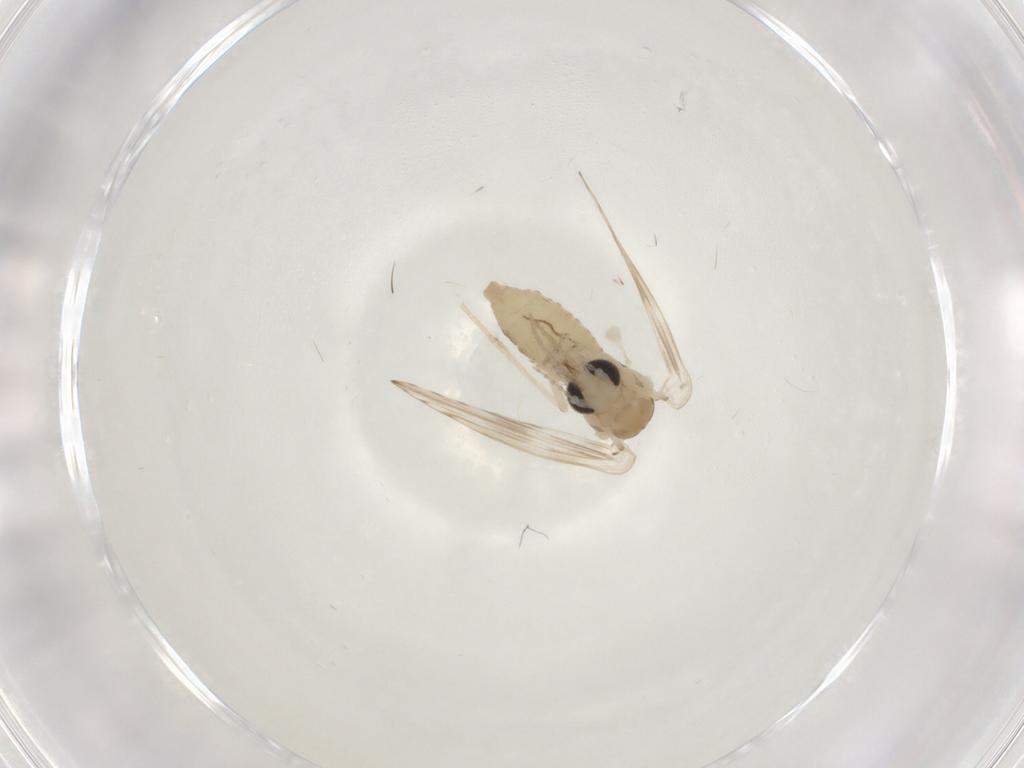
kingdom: Animalia
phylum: Arthropoda
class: Insecta
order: Diptera
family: Psychodidae
